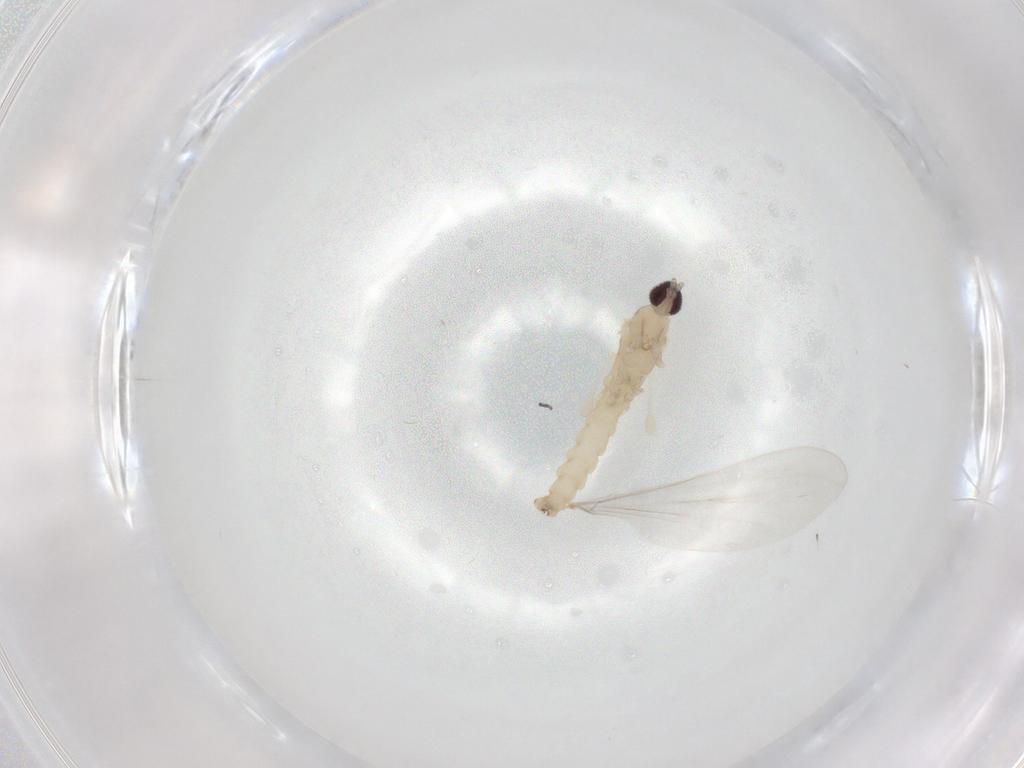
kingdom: Animalia
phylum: Arthropoda
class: Insecta
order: Diptera
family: Cecidomyiidae
